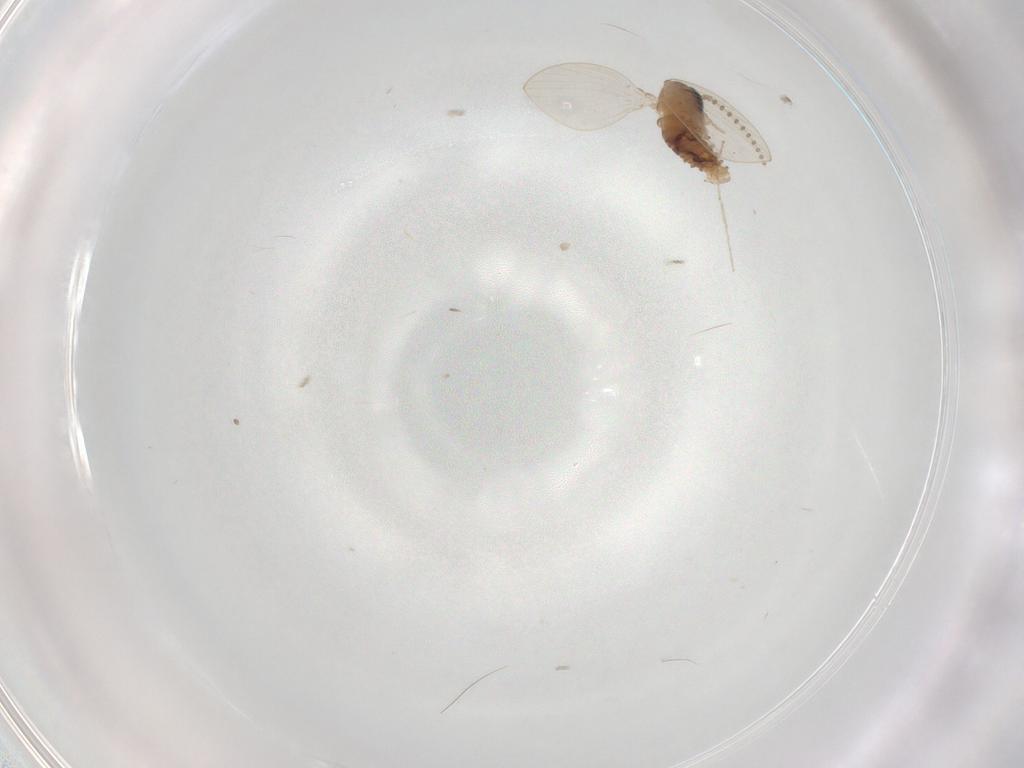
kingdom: Animalia
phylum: Arthropoda
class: Insecta
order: Diptera
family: Psychodidae
